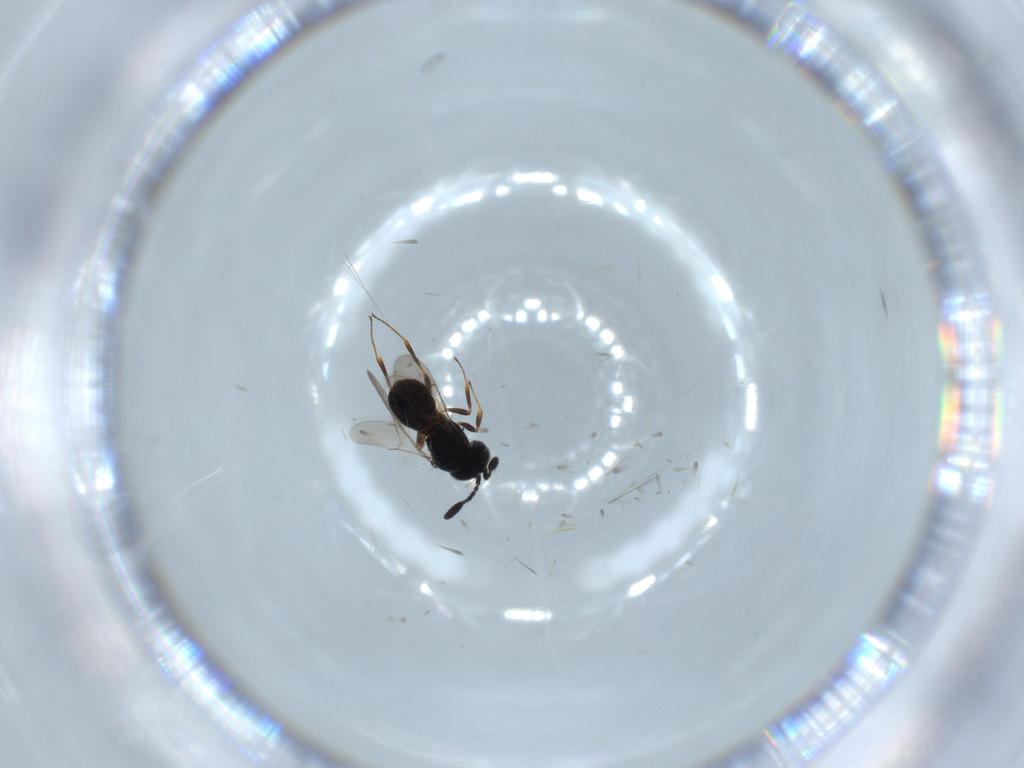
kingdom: Animalia
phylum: Arthropoda
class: Insecta
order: Hymenoptera
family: Scelionidae
